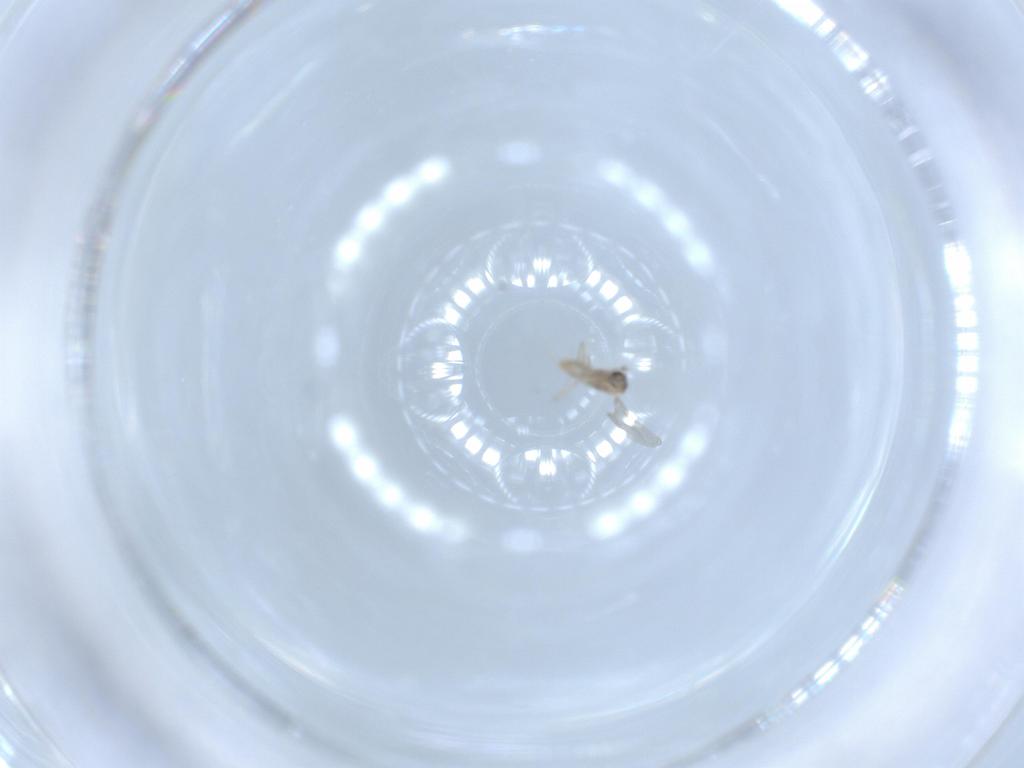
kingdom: Animalia
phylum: Arthropoda
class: Insecta
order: Diptera
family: Cecidomyiidae
